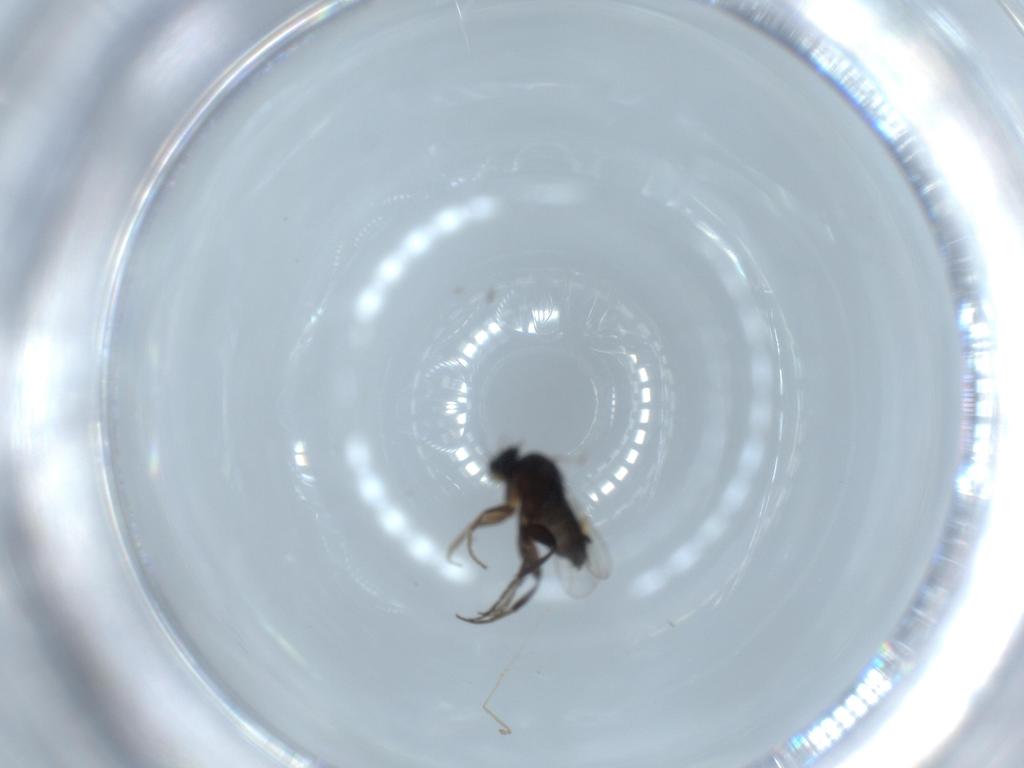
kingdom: Animalia
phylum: Arthropoda
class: Insecta
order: Diptera
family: Phoridae
